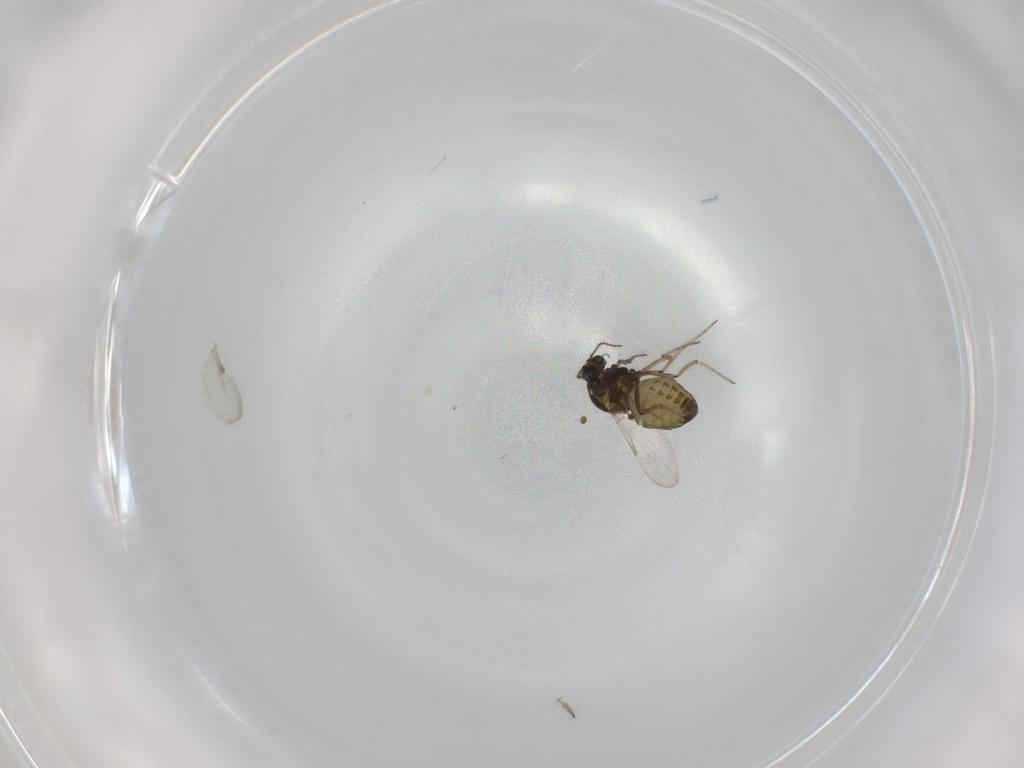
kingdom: Animalia
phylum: Arthropoda
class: Insecta
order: Diptera
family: Ceratopogonidae
